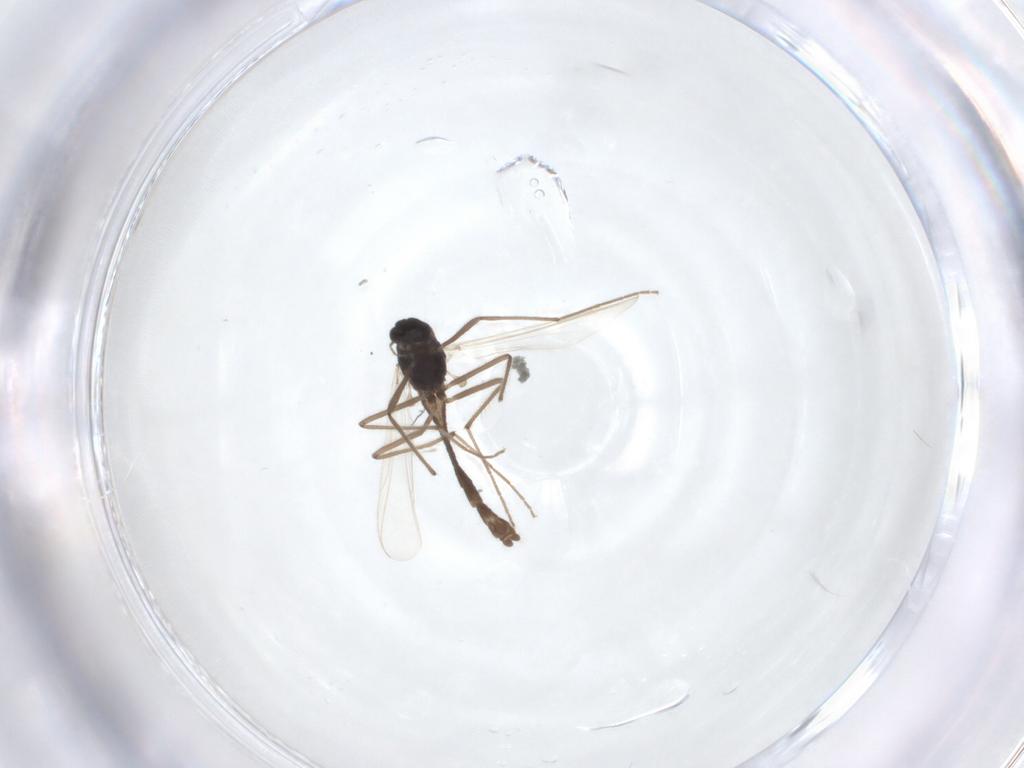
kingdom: Animalia
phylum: Arthropoda
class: Insecta
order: Diptera
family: Chironomidae
